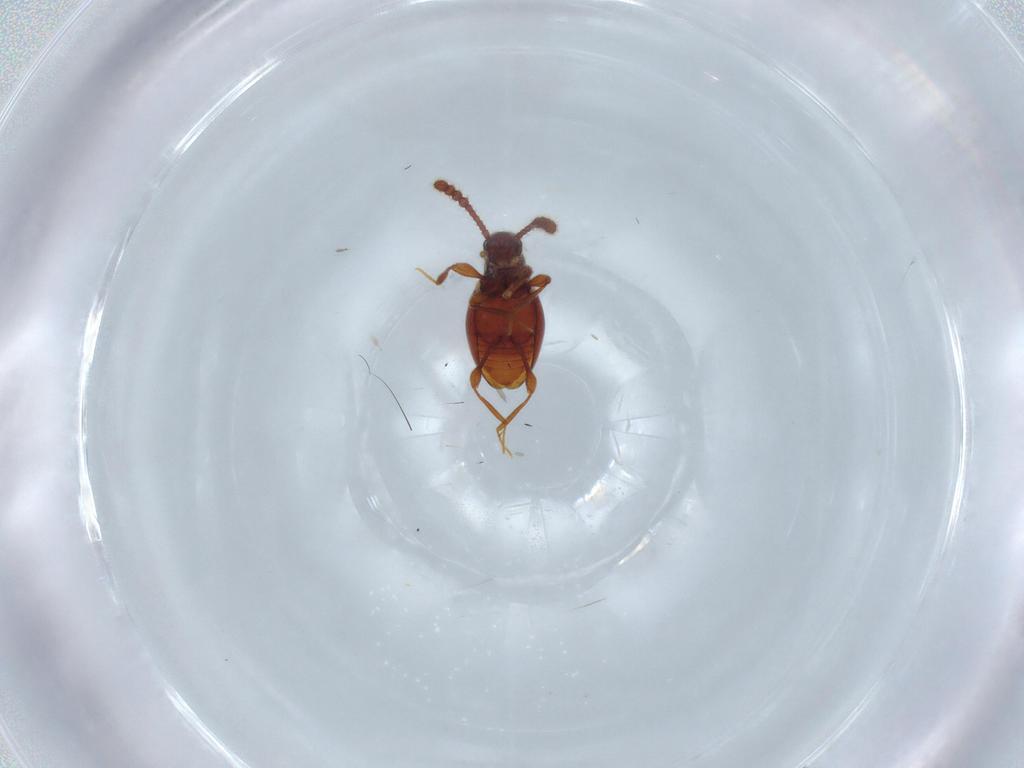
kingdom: Animalia
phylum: Arthropoda
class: Insecta
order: Coleoptera
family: Staphylinidae
